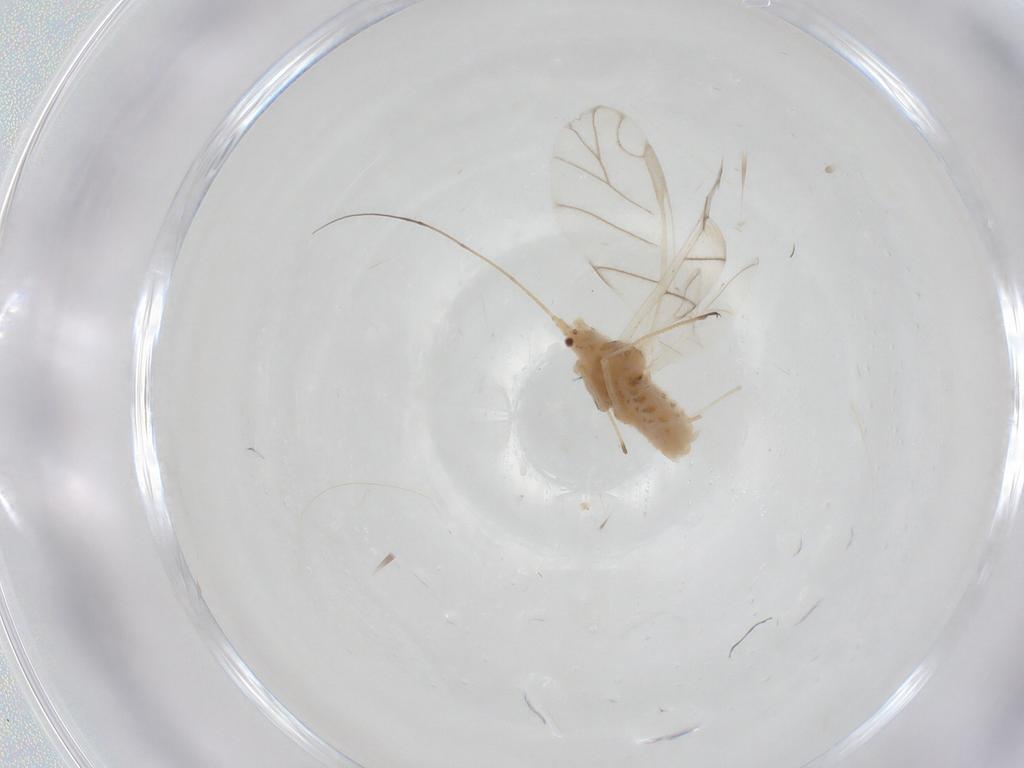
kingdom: Animalia
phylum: Arthropoda
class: Insecta
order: Hemiptera
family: Aphididae
